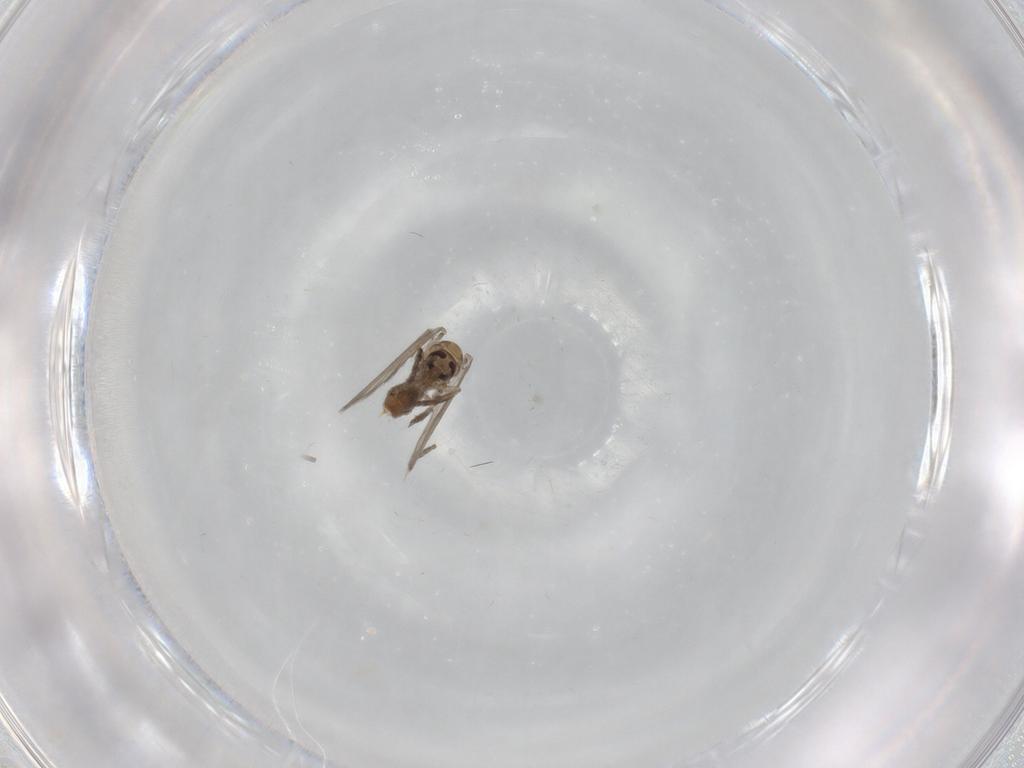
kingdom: Animalia
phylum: Arthropoda
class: Insecta
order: Diptera
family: Psychodidae
